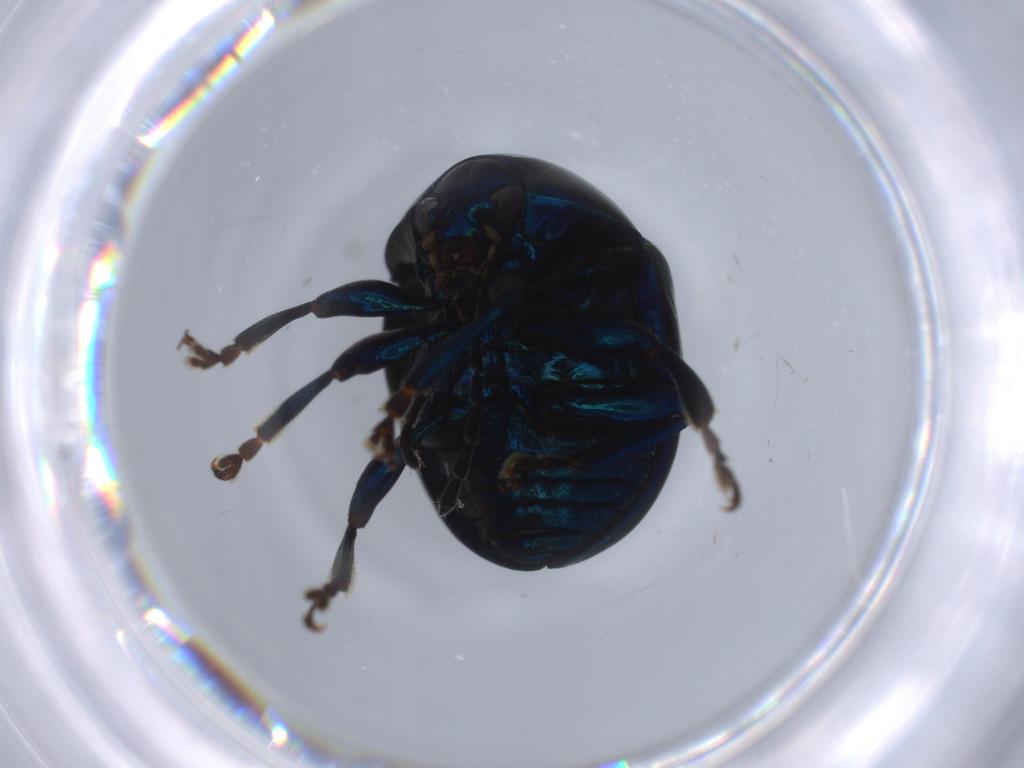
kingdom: Animalia
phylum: Arthropoda
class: Insecta
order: Coleoptera
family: Chrysomelidae
